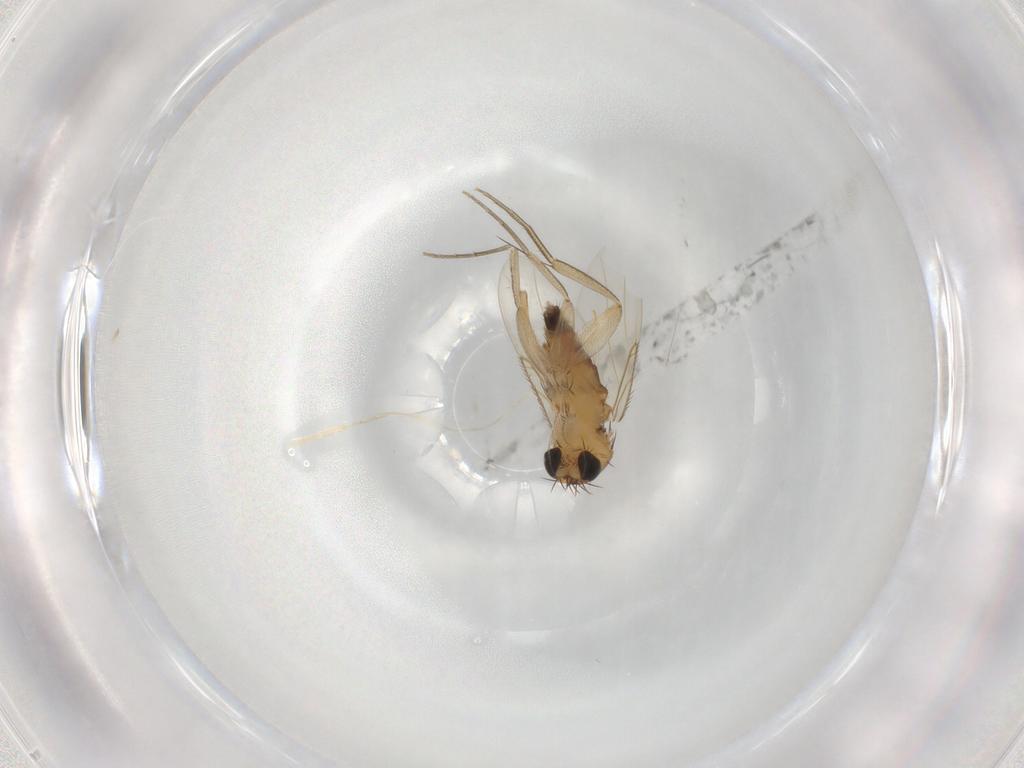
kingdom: Animalia
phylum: Arthropoda
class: Insecta
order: Diptera
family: Phoridae
